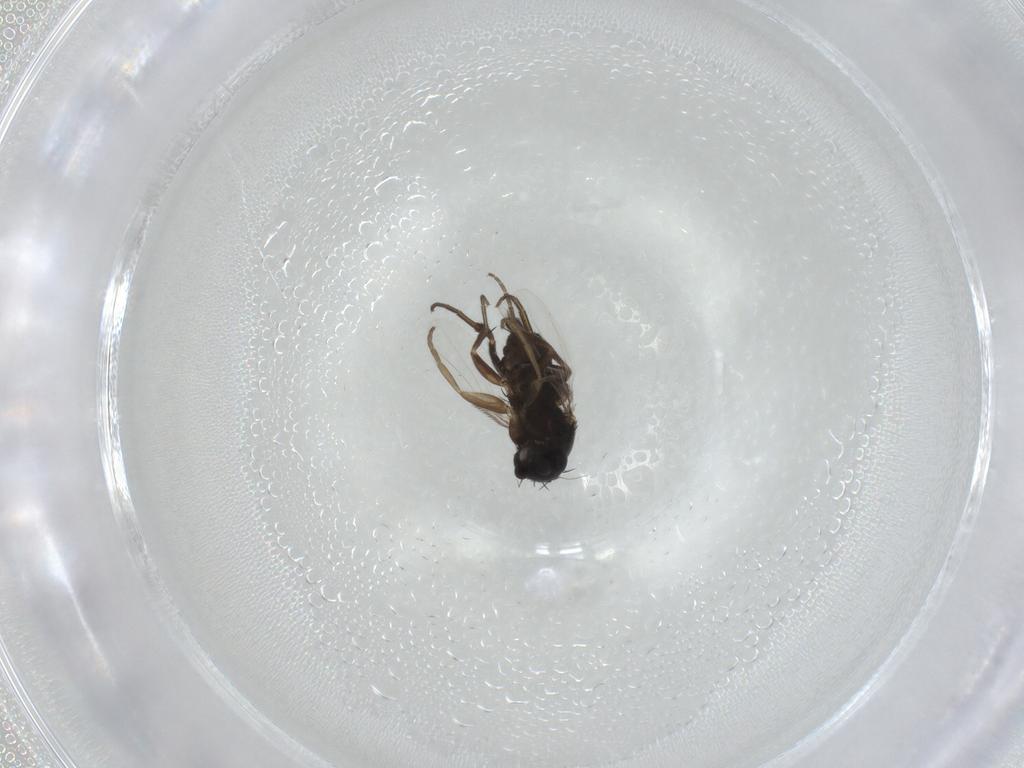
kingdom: Animalia
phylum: Arthropoda
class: Insecta
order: Diptera
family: Phoridae
